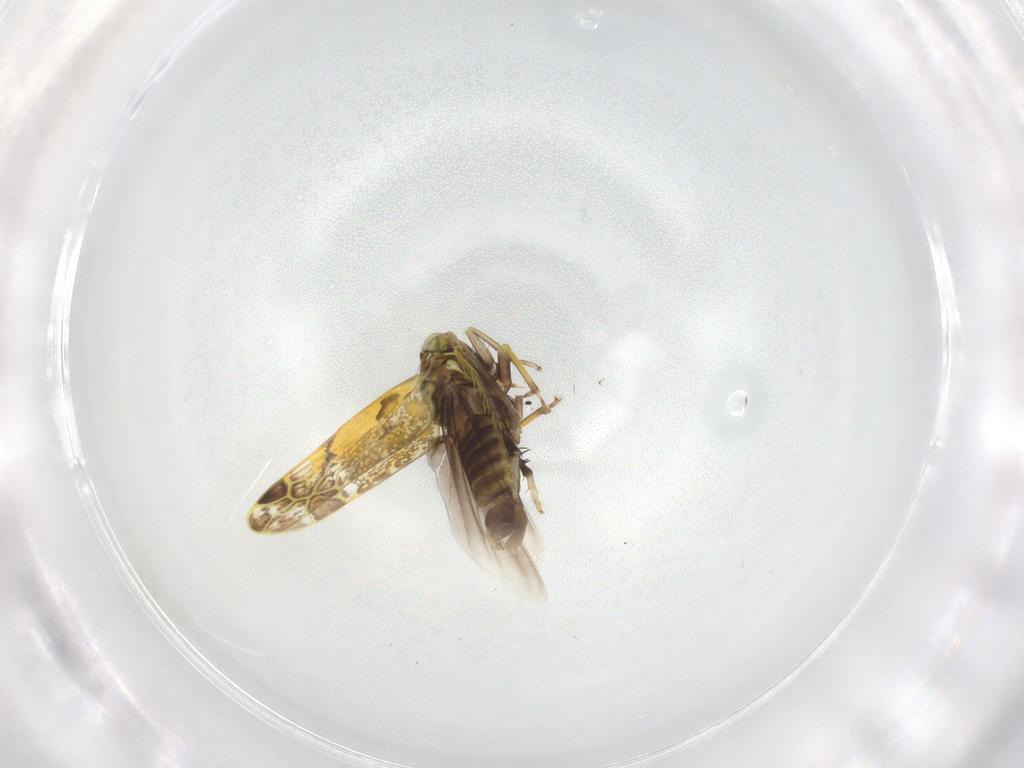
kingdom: Animalia
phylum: Arthropoda
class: Insecta
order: Hemiptera
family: Cicadellidae
